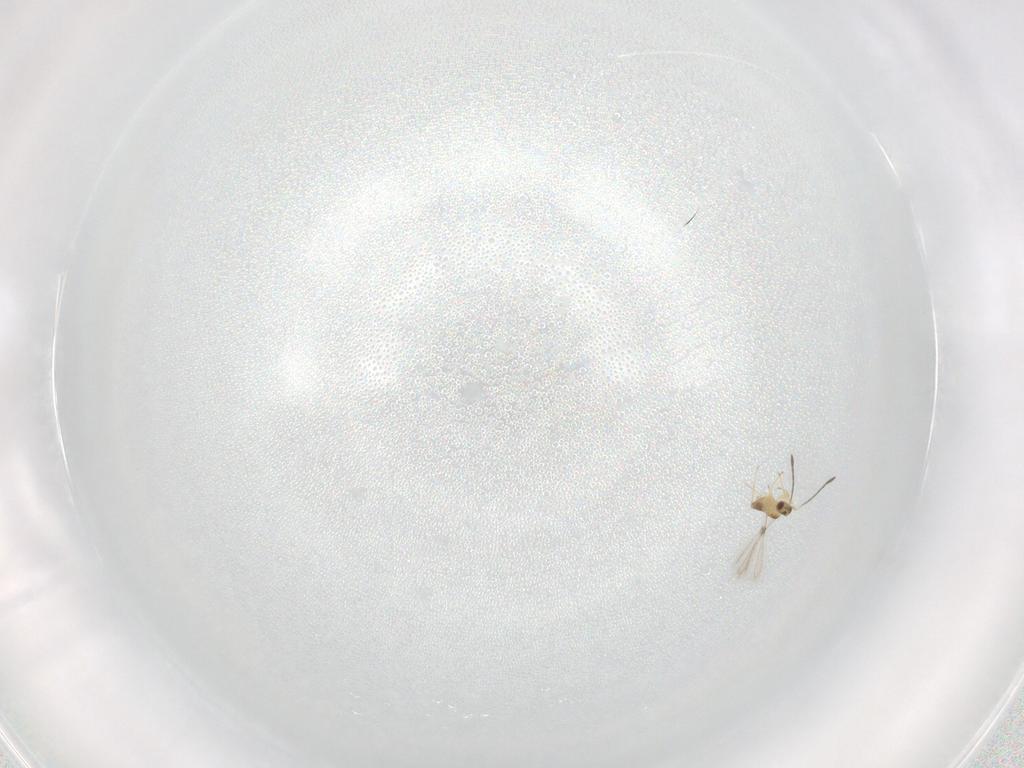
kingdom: Animalia
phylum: Arthropoda
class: Insecta
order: Hymenoptera
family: Mymaridae
